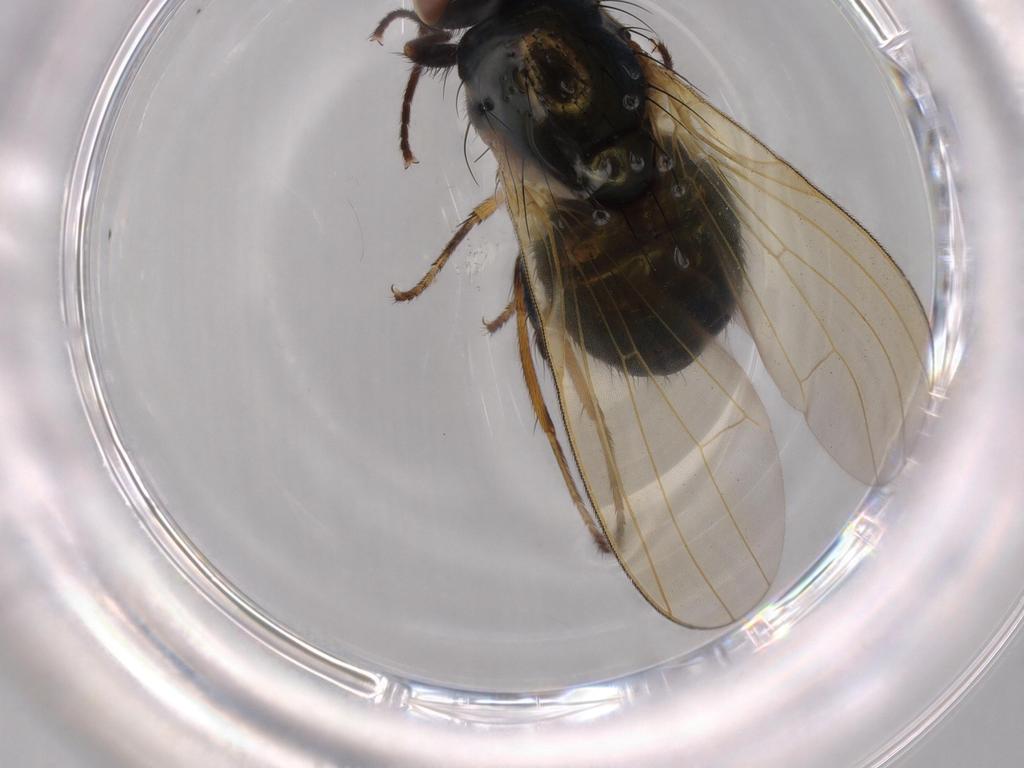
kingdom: Animalia
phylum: Arthropoda
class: Insecta
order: Diptera
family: Lauxaniidae
